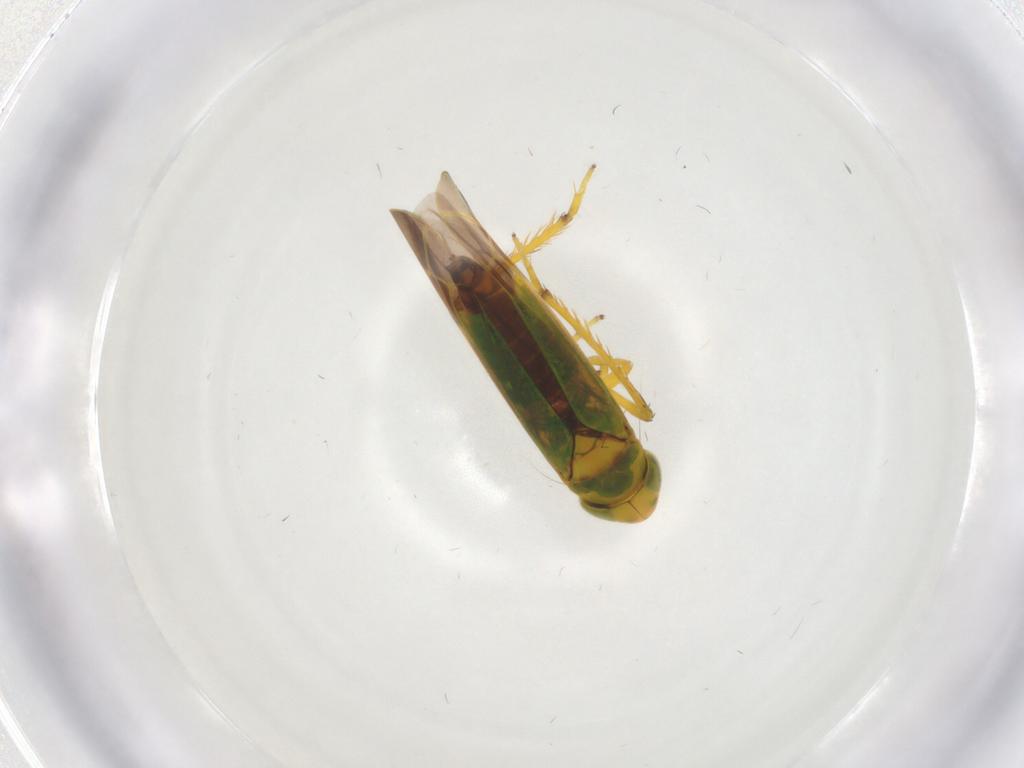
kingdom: Animalia
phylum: Arthropoda
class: Insecta
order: Hemiptera
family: Cicadellidae
